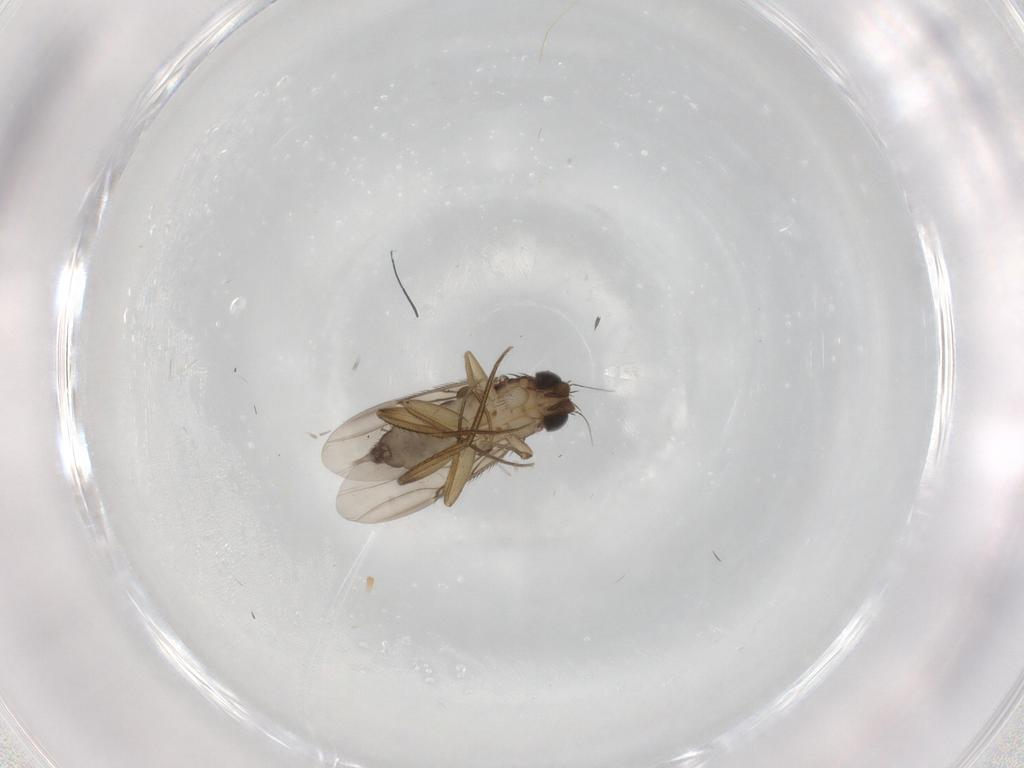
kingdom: Animalia
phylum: Arthropoda
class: Insecta
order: Diptera
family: Phoridae
